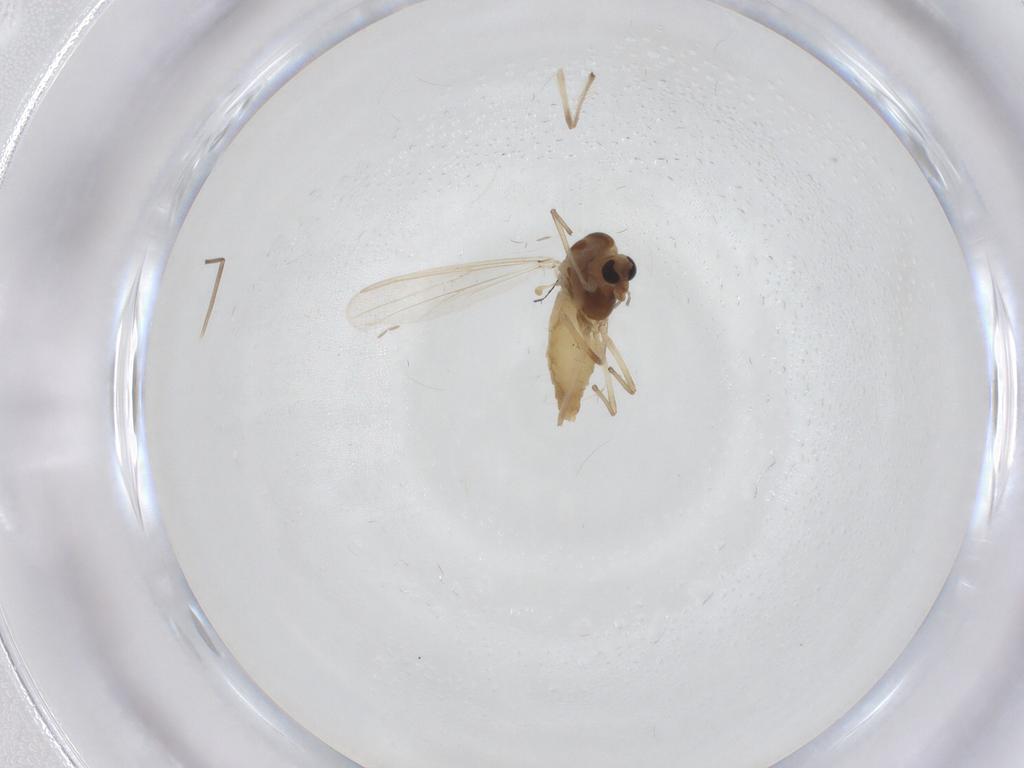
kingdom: Animalia
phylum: Arthropoda
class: Insecta
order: Diptera
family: Chironomidae
